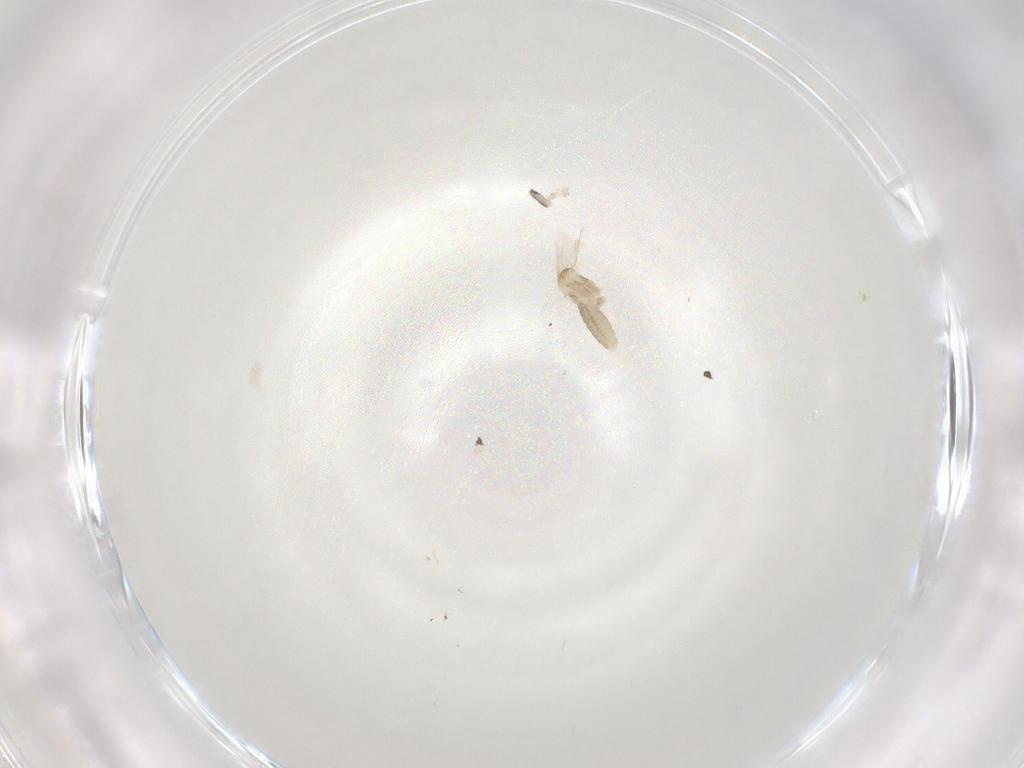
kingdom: Animalia
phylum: Arthropoda
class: Insecta
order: Diptera
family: Cecidomyiidae
